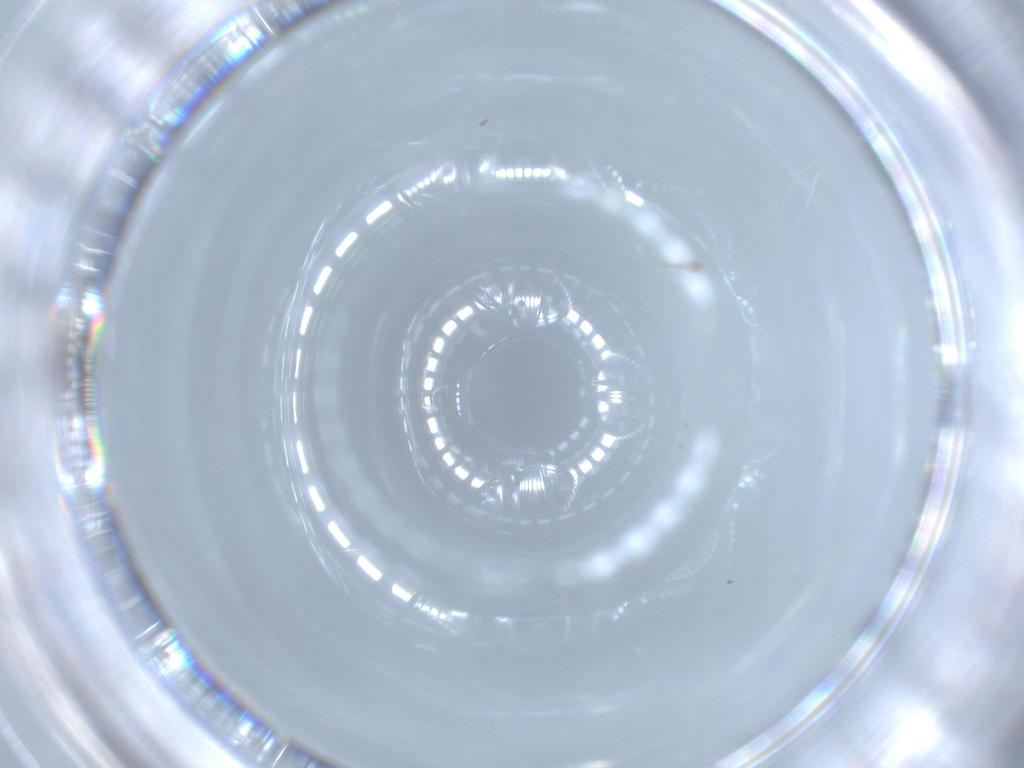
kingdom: Animalia
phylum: Arthropoda
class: Insecta
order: Diptera
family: Cecidomyiidae
